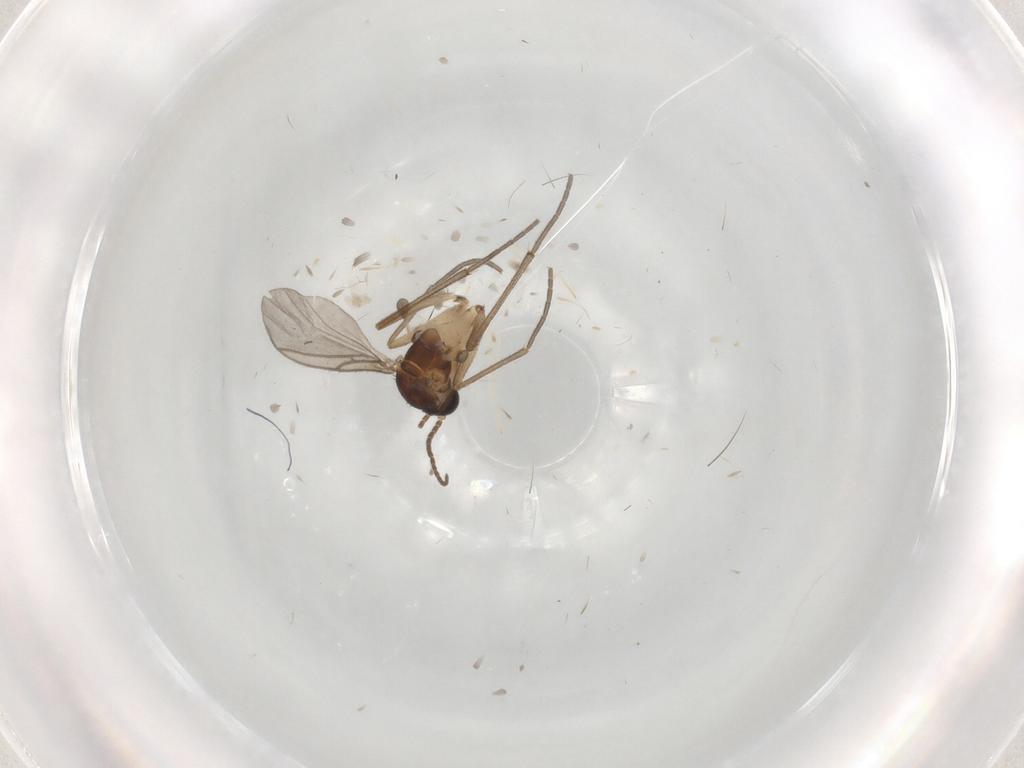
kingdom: Animalia
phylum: Arthropoda
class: Insecta
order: Diptera
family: Sciaridae
